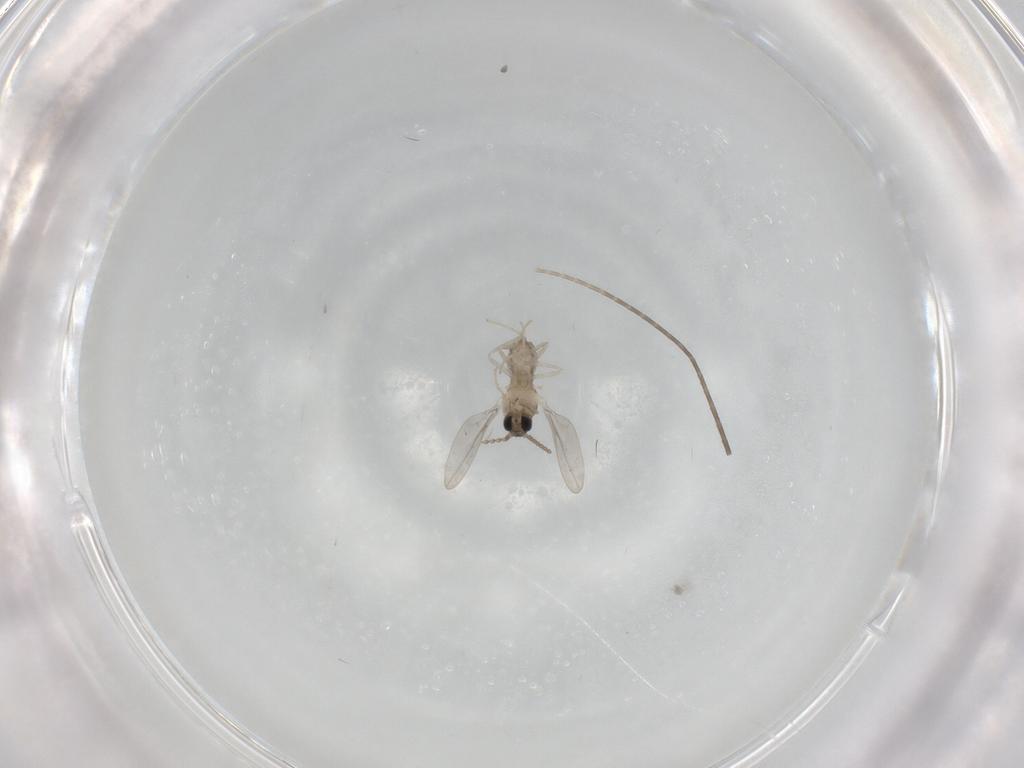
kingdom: Animalia
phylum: Arthropoda
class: Insecta
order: Diptera
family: Cecidomyiidae
